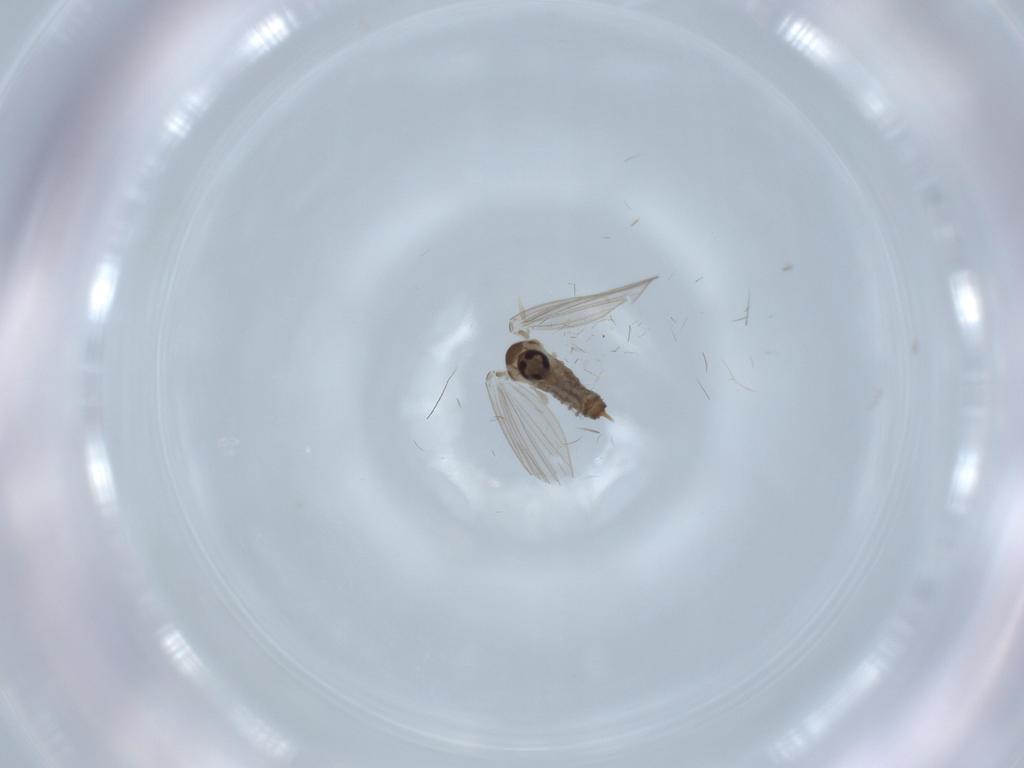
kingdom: Animalia
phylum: Arthropoda
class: Insecta
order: Diptera
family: Psychodidae
